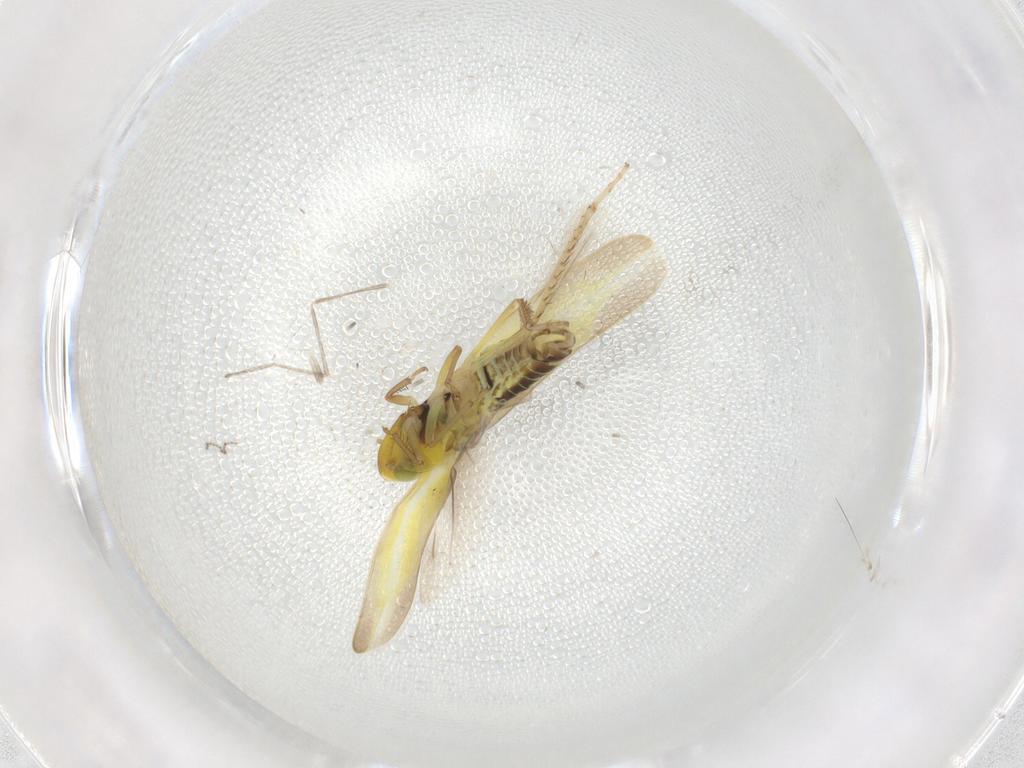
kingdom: Animalia
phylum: Arthropoda
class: Insecta
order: Hemiptera
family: Cicadellidae
